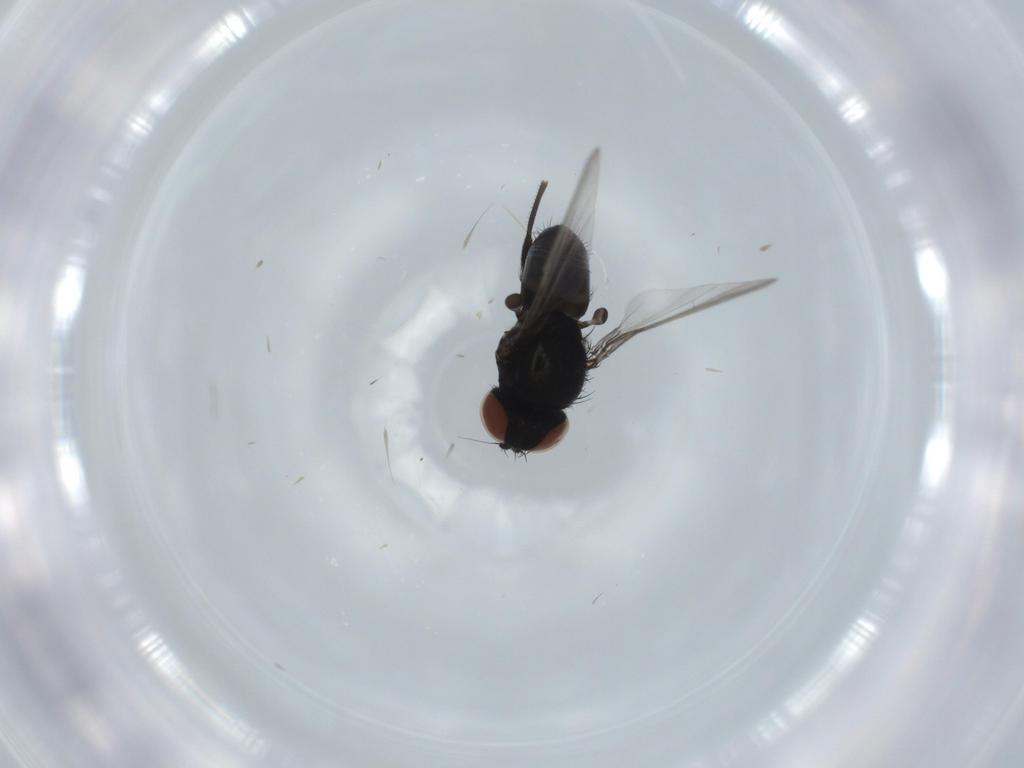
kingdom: Animalia
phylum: Arthropoda
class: Insecta
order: Diptera
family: Milichiidae
